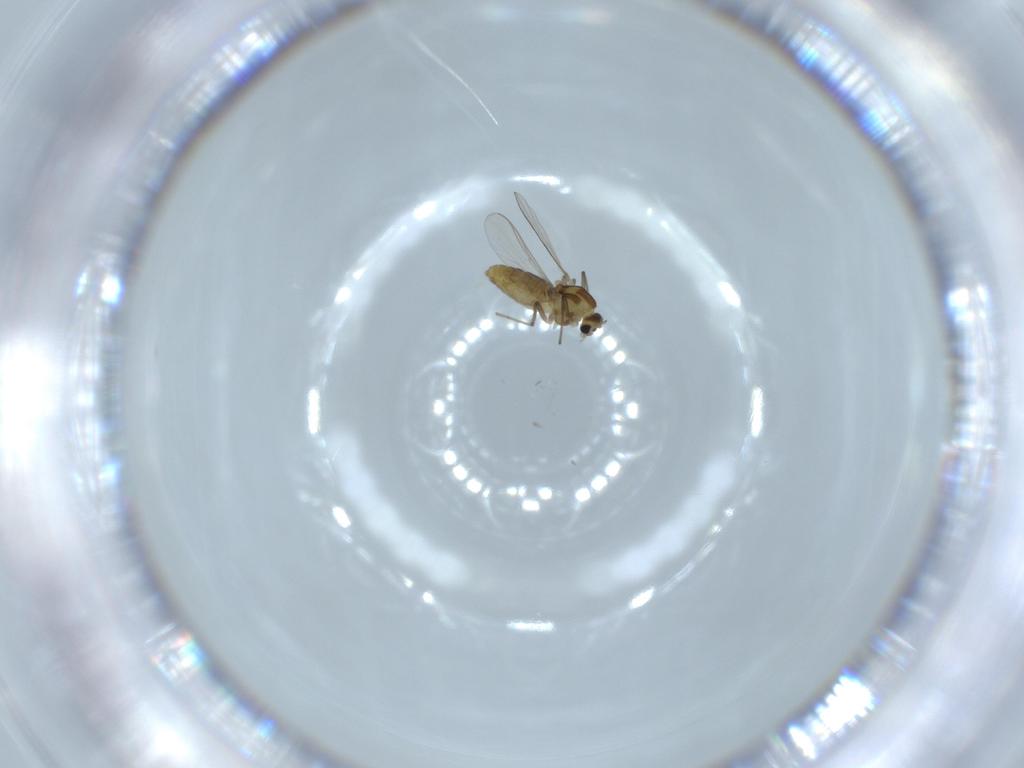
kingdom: Animalia
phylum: Arthropoda
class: Insecta
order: Diptera
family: Chironomidae
